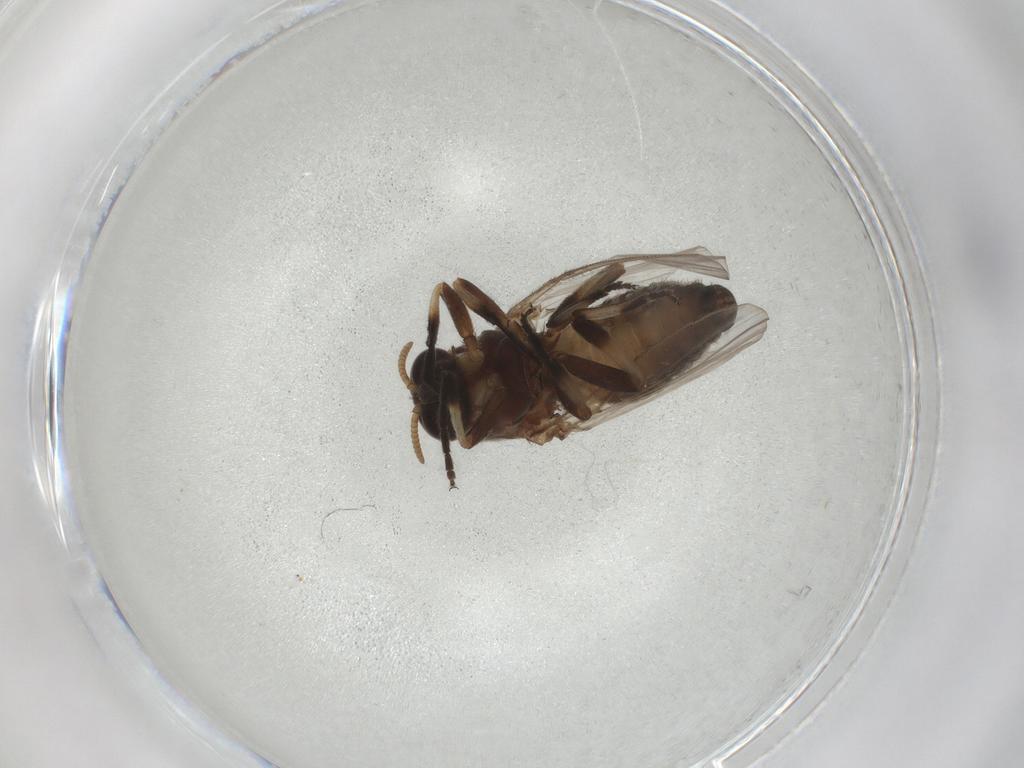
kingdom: Animalia
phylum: Arthropoda
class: Insecta
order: Diptera
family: Simuliidae
